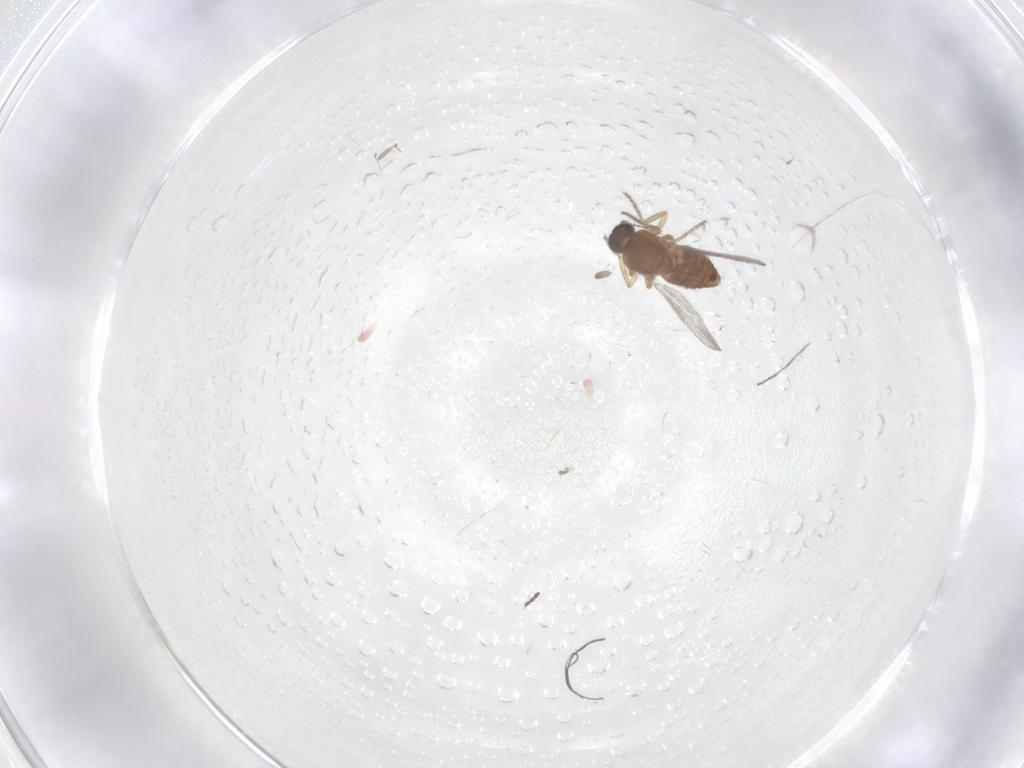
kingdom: Animalia
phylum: Arthropoda
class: Insecta
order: Diptera
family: Ceratopogonidae
